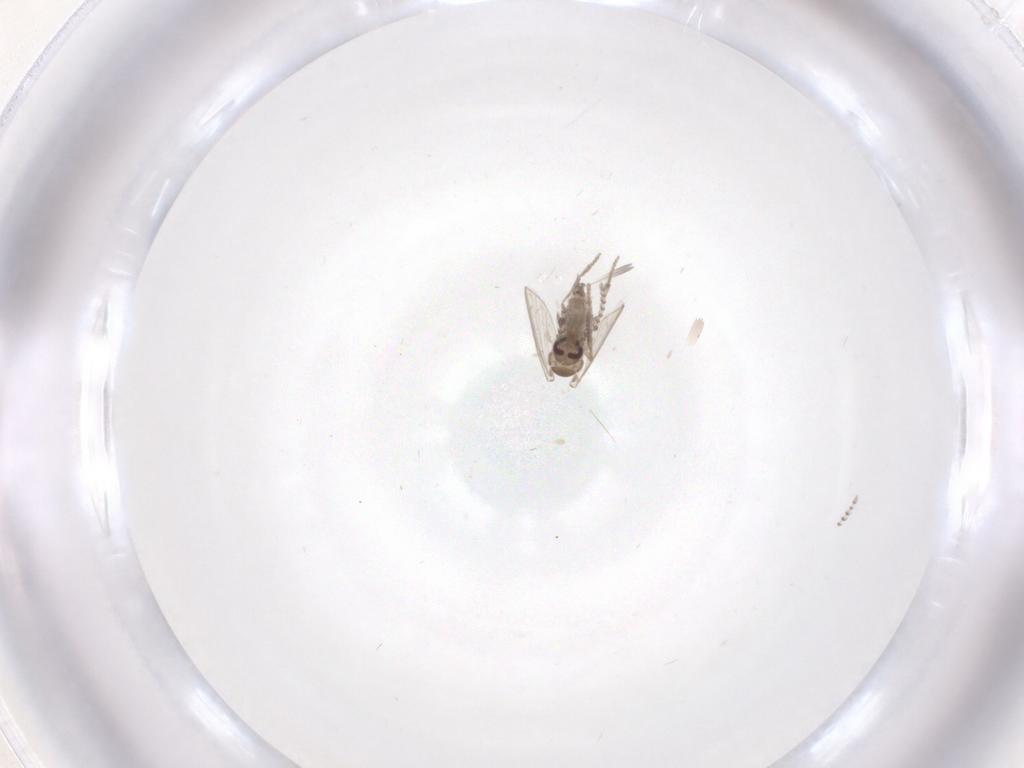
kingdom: Animalia
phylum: Arthropoda
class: Insecta
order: Diptera
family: Psychodidae
